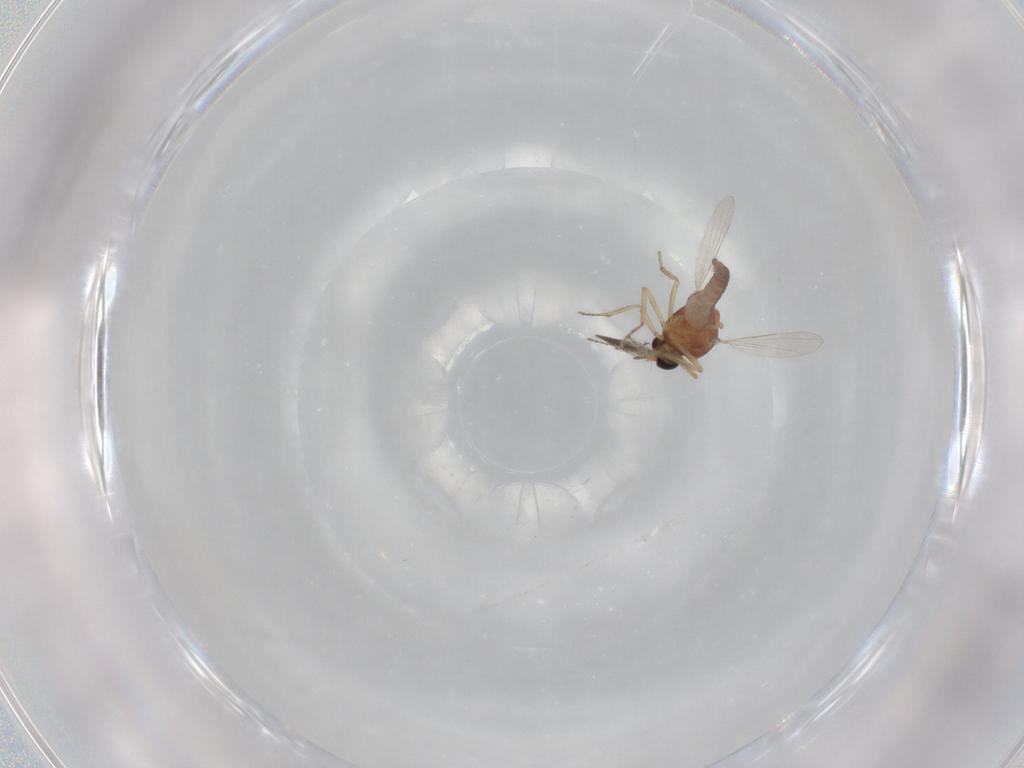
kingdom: Animalia
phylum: Arthropoda
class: Insecta
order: Diptera
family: Ceratopogonidae
